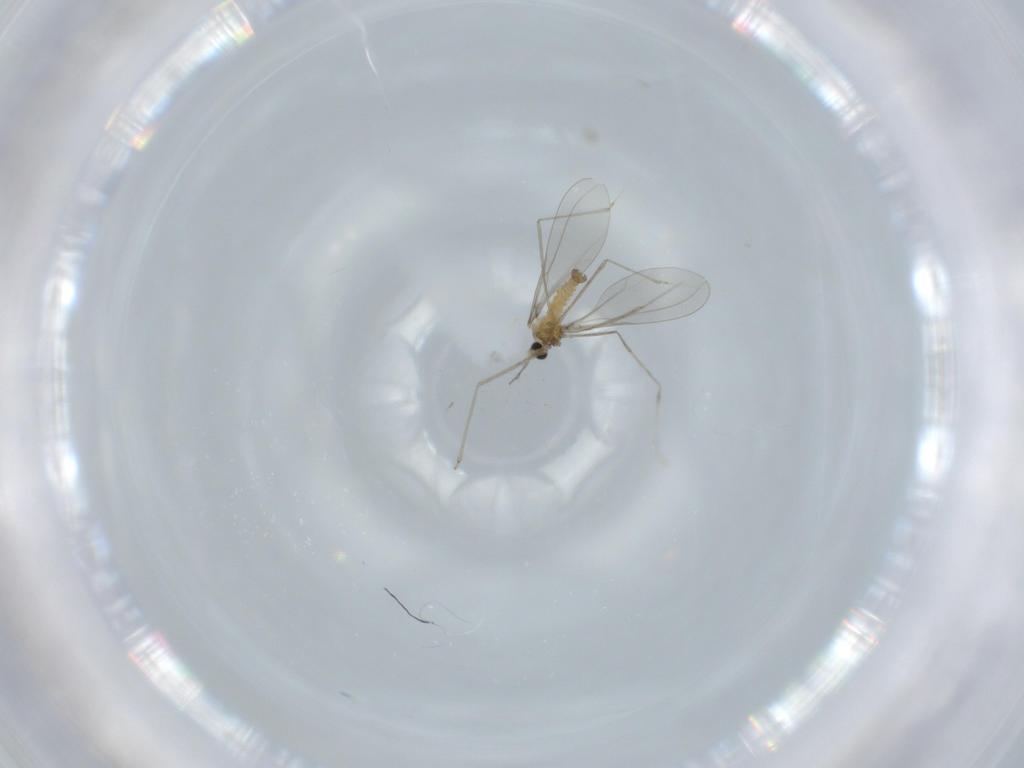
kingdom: Animalia
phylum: Arthropoda
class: Insecta
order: Diptera
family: Cecidomyiidae
